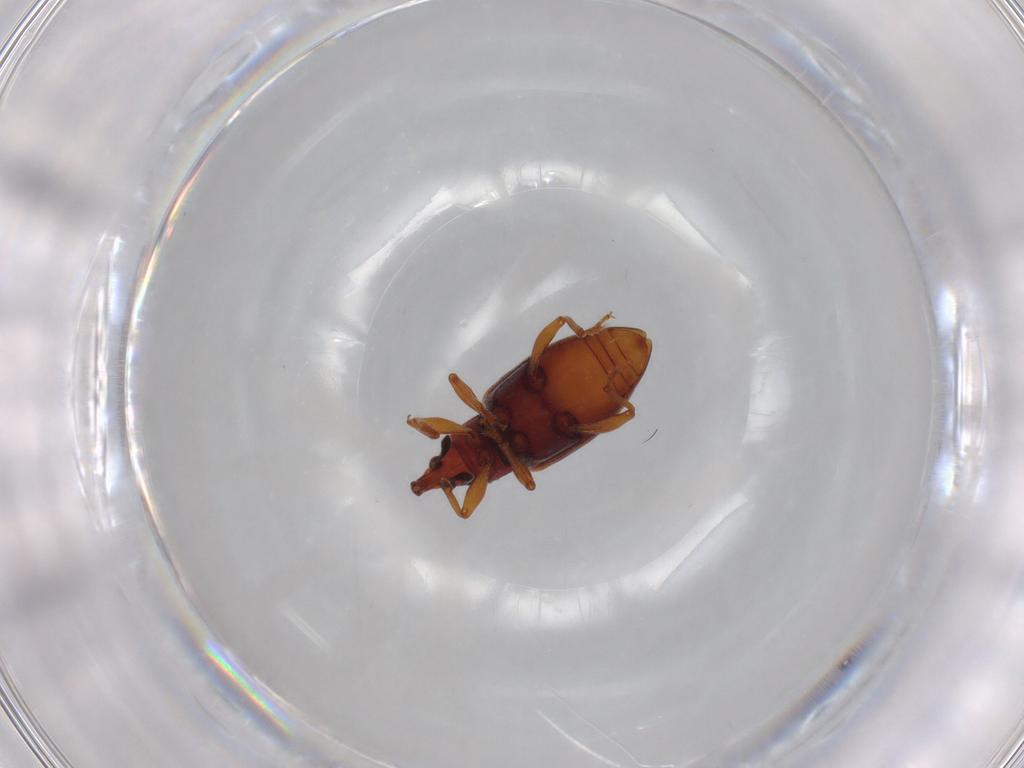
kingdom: Animalia
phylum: Arthropoda
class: Insecta
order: Coleoptera
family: Curculionidae
